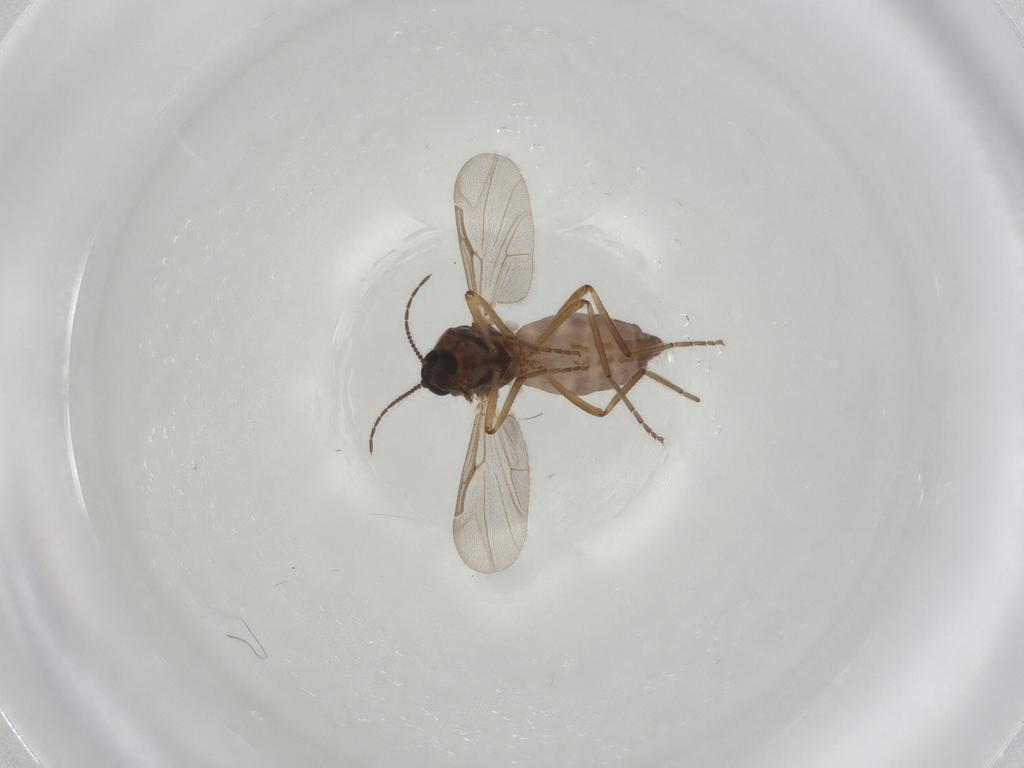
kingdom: Animalia
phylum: Arthropoda
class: Insecta
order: Diptera
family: Ceratopogonidae
